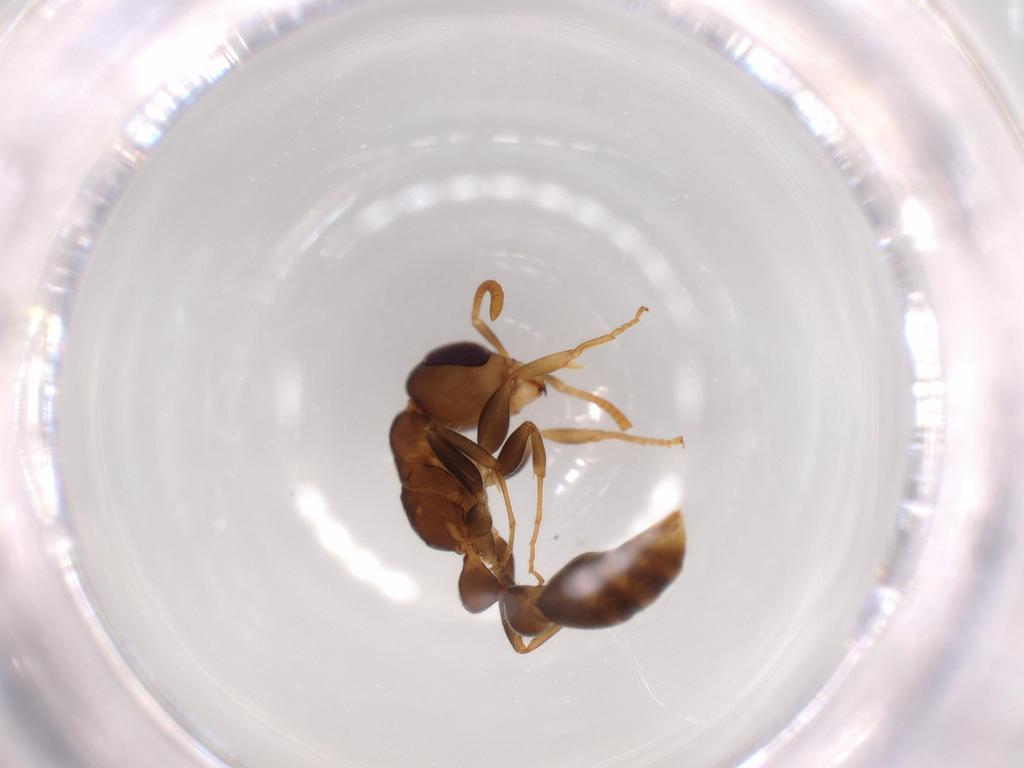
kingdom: Animalia
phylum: Arthropoda
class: Insecta
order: Hymenoptera
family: Formicidae
